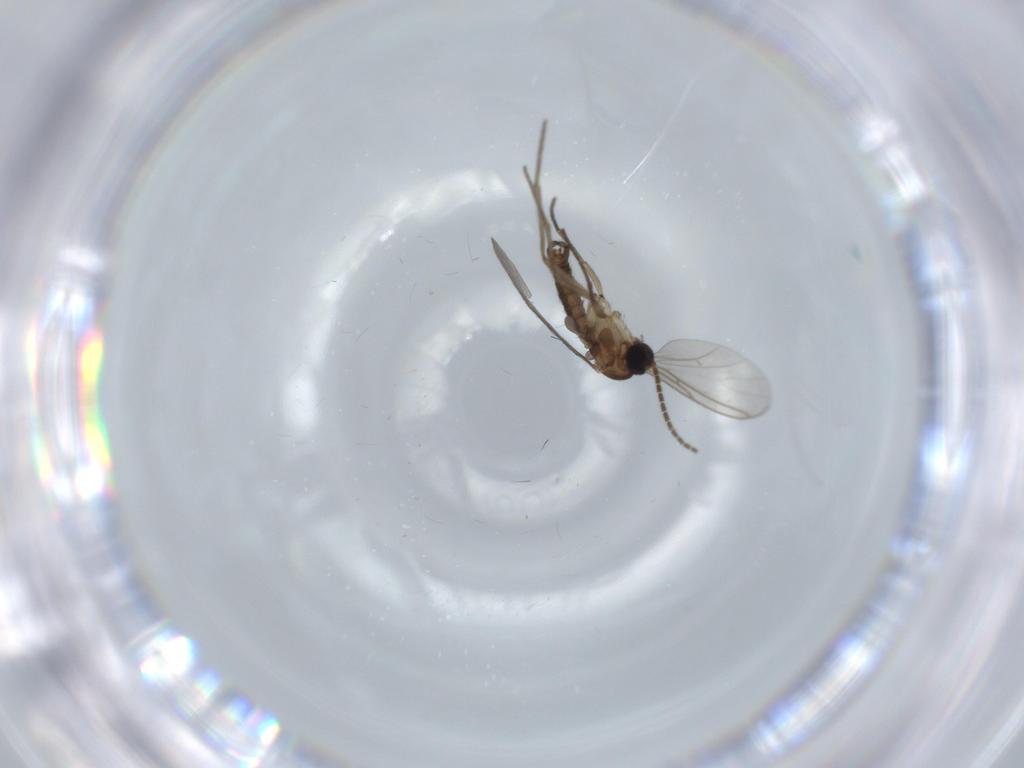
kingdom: Animalia
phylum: Arthropoda
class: Insecta
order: Diptera
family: Sciaridae
